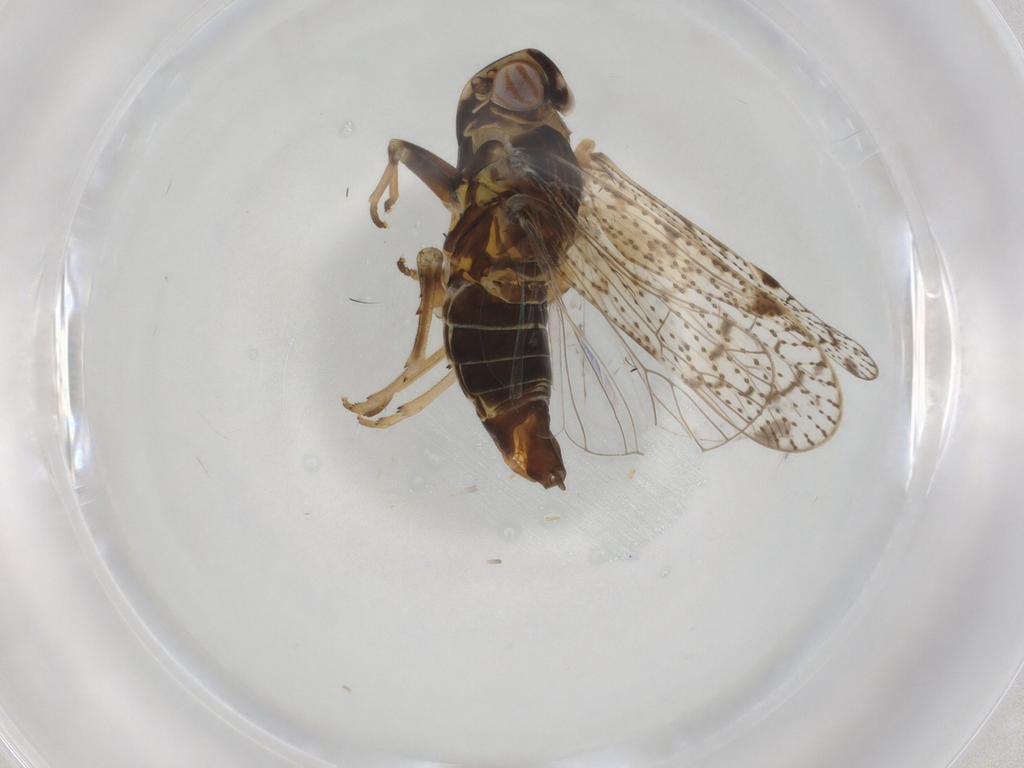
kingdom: Animalia
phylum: Arthropoda
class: Insecta
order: Hemiptera
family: Cixiidae
